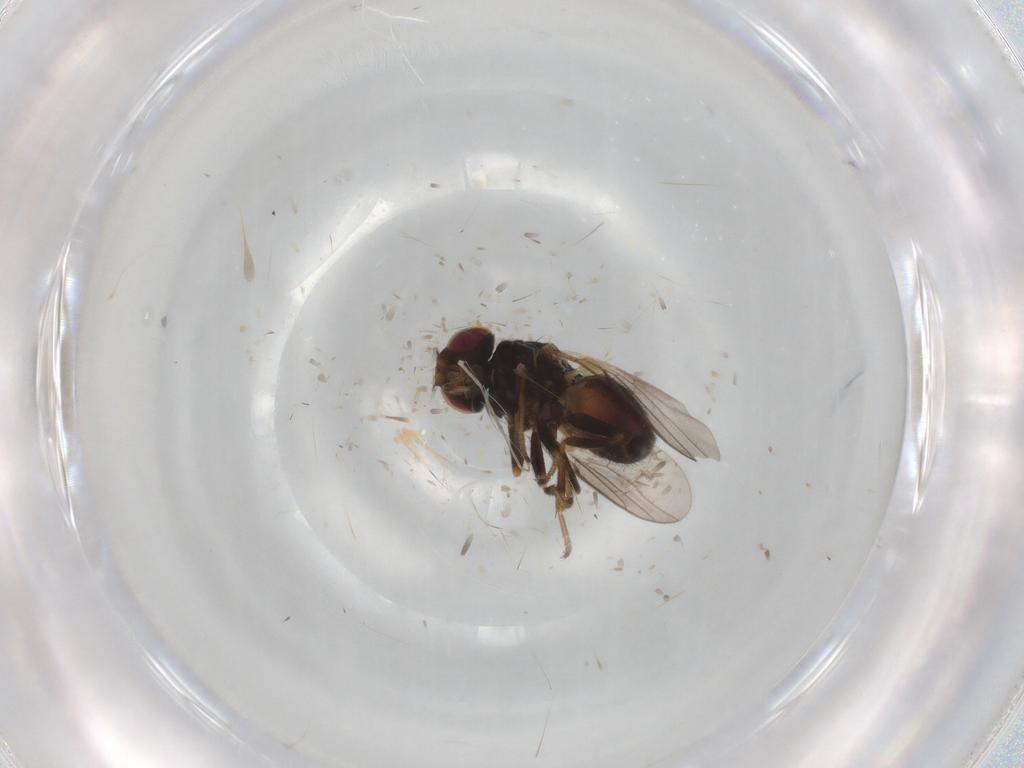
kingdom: Animalia
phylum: Arthropoda
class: Insecta
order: Diptera
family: Chloropidae
